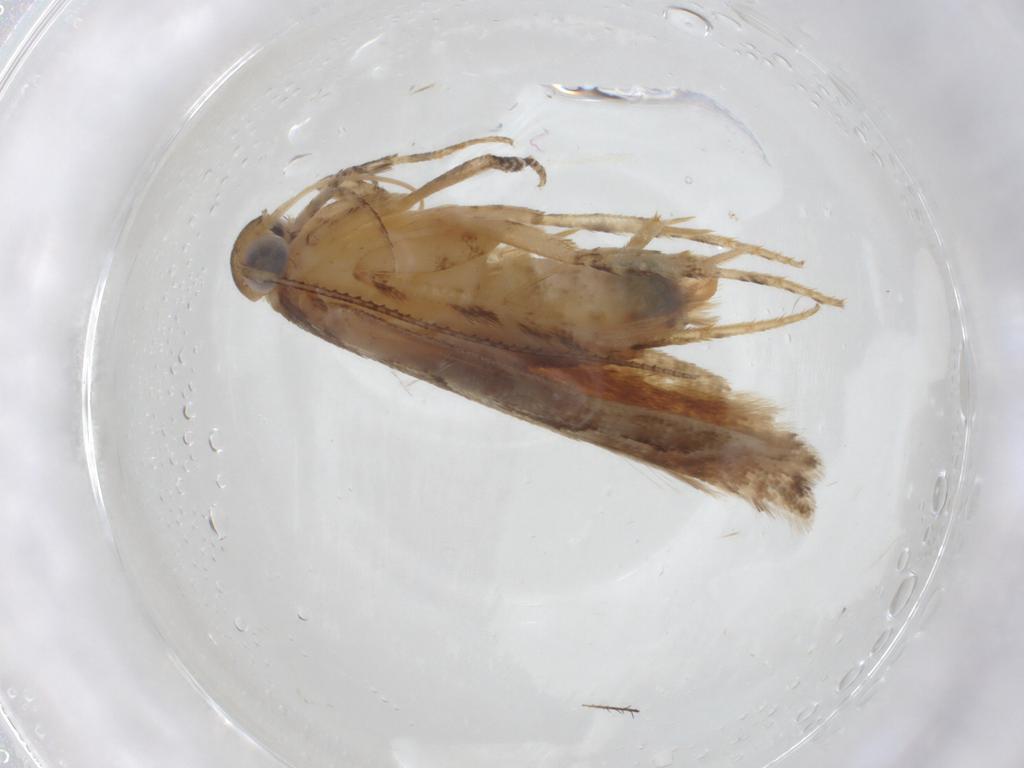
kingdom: Animalia
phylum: Arthropoda
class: Insecta
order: Lepidoptera
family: Gelechiidae
